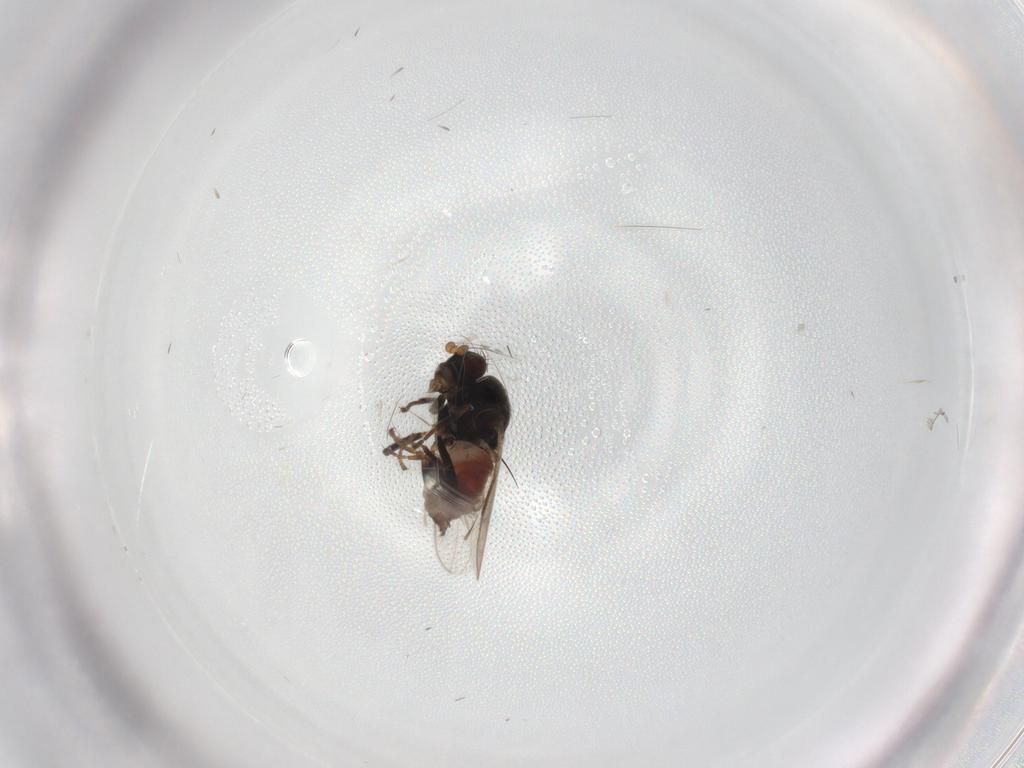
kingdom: Animalia
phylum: Arthropoda
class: Insecta
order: Diptera
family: Sphaeroceridae
